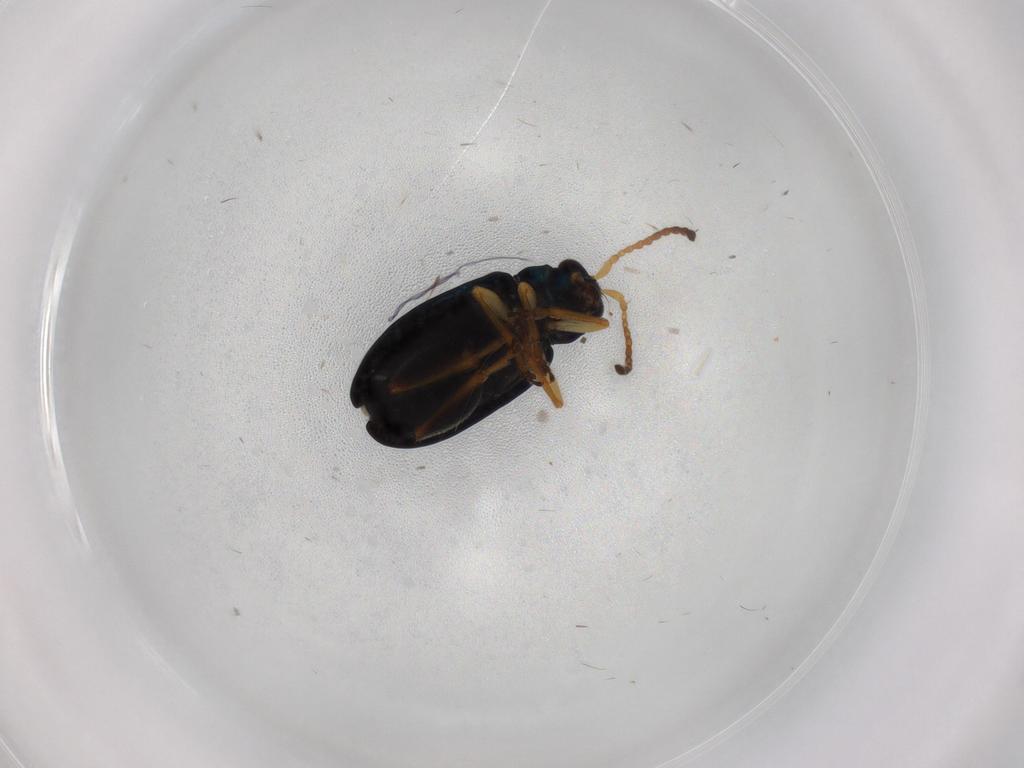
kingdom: Animalia
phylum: Arthropoda
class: Insecta
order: Coleoptera
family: Chrysomelidae
